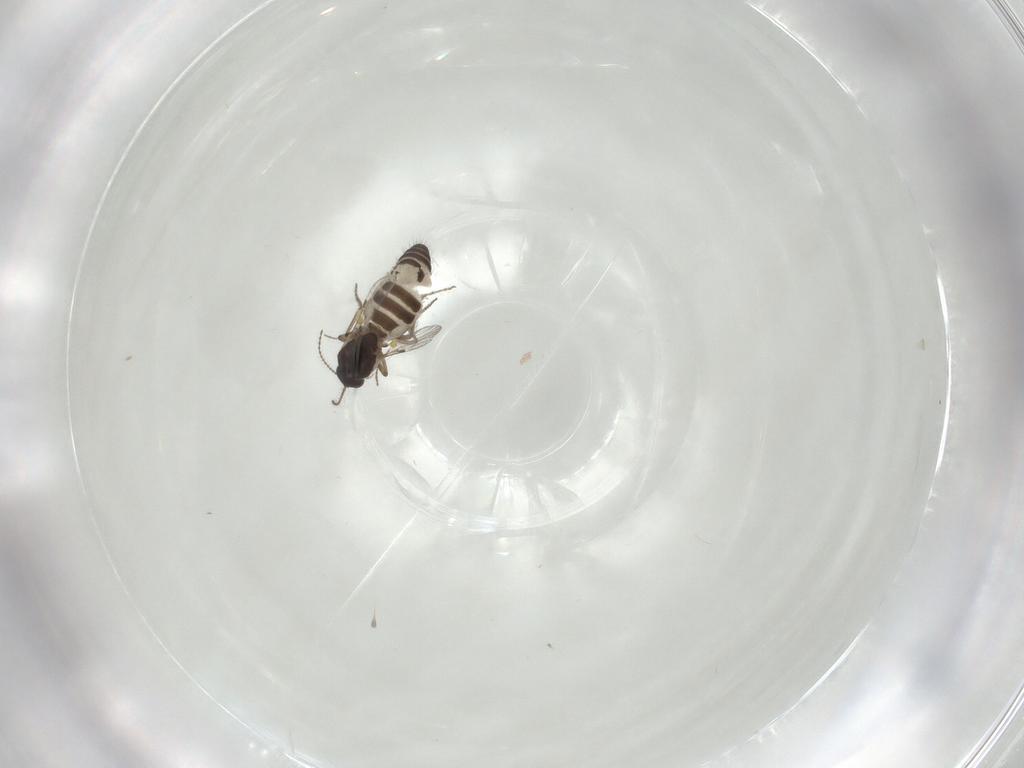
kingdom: Animalia
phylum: Arthropoda
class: Insecta
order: Diptera
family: Ceratopogonidae
